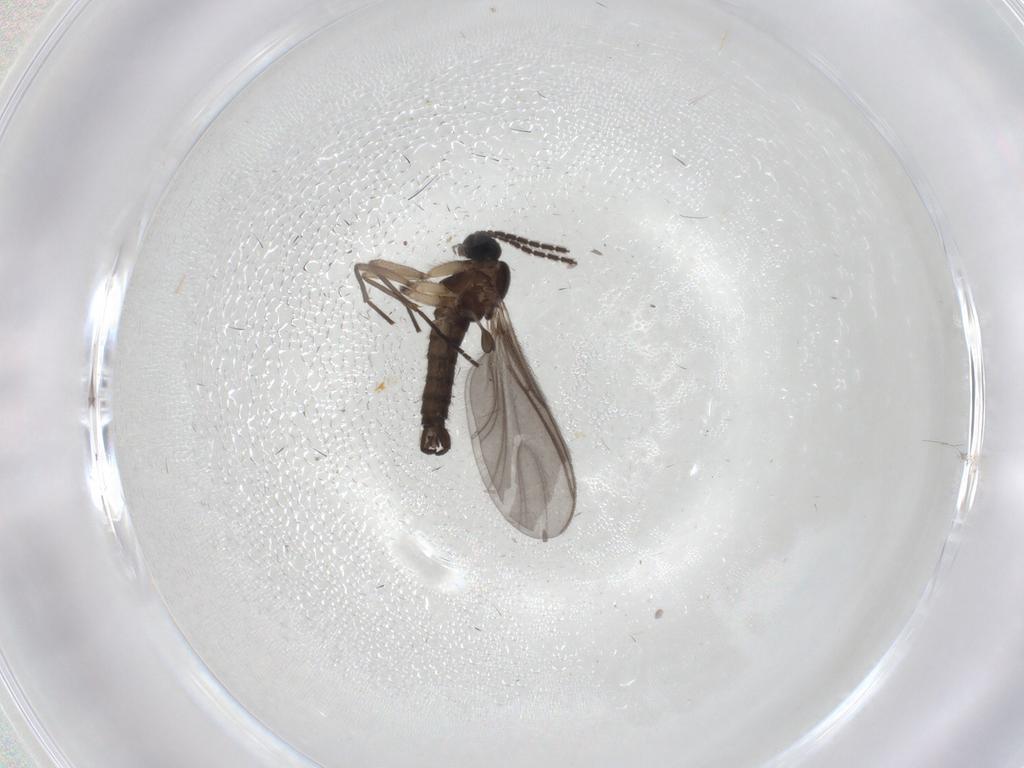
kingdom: Animalia
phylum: Arthropoda
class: Insecta
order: Diptera
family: Sciaridae
